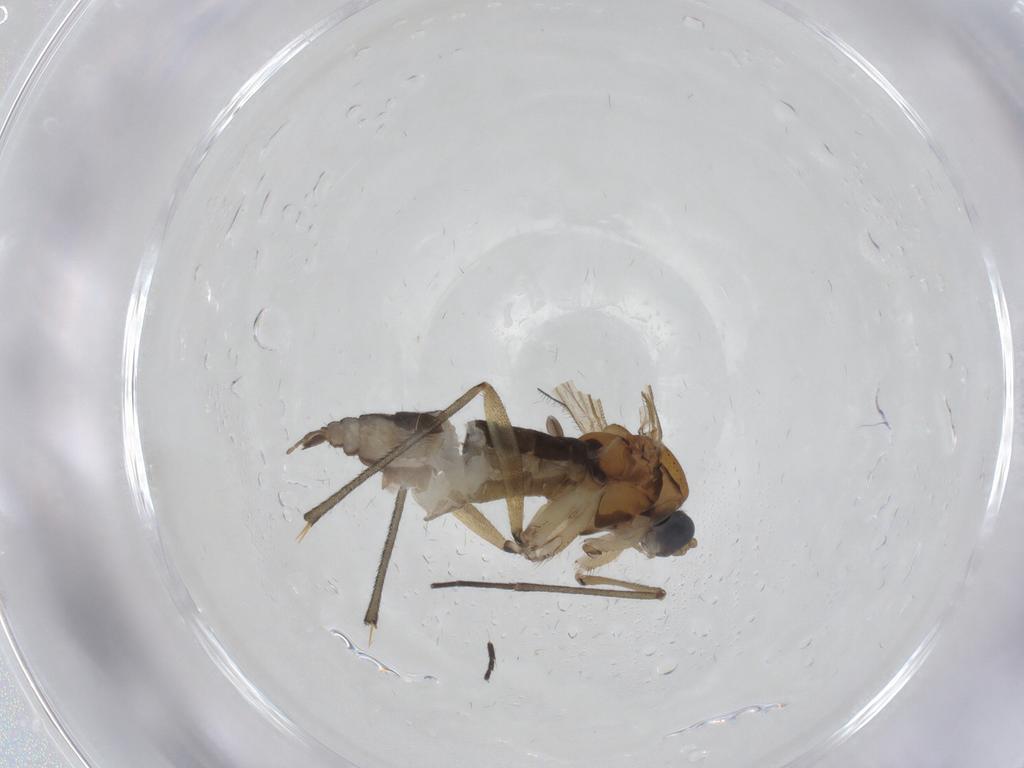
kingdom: Animalia
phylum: Arthropoda
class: Insecta
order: Diptera
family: Sciaridae
